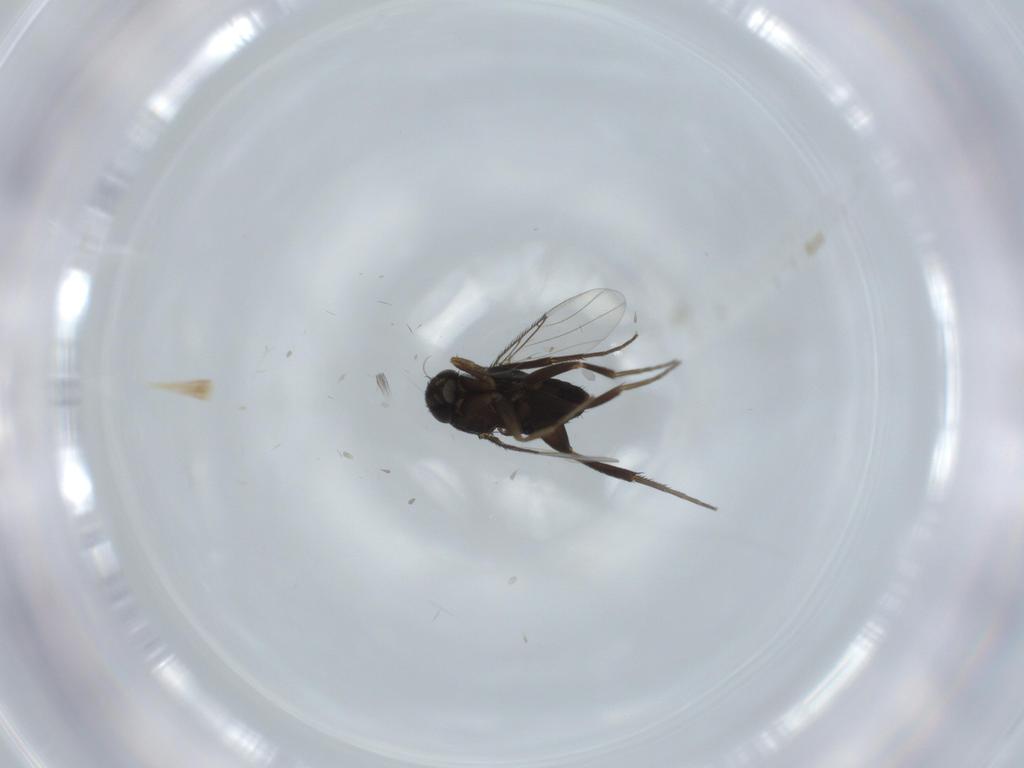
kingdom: Animalia
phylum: Arthropoda
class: Insecta
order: Diptera
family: Phoridae
